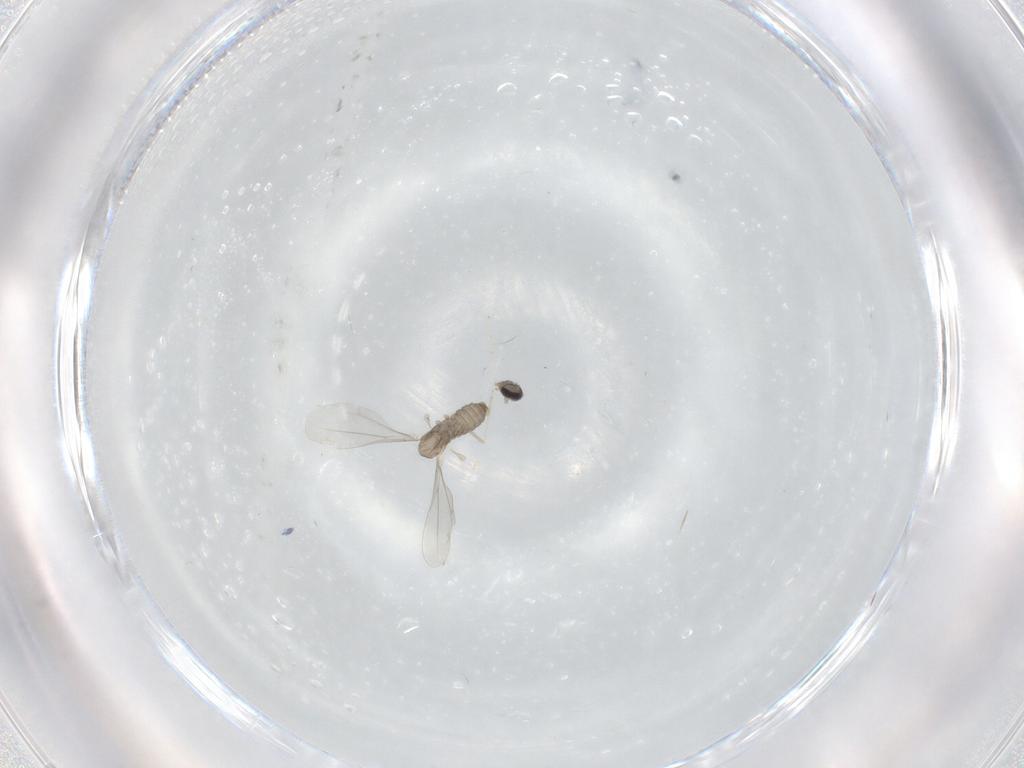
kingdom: Animalia
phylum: Arthropoda
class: Insecta
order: Diptera
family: Cecidomyiidae
